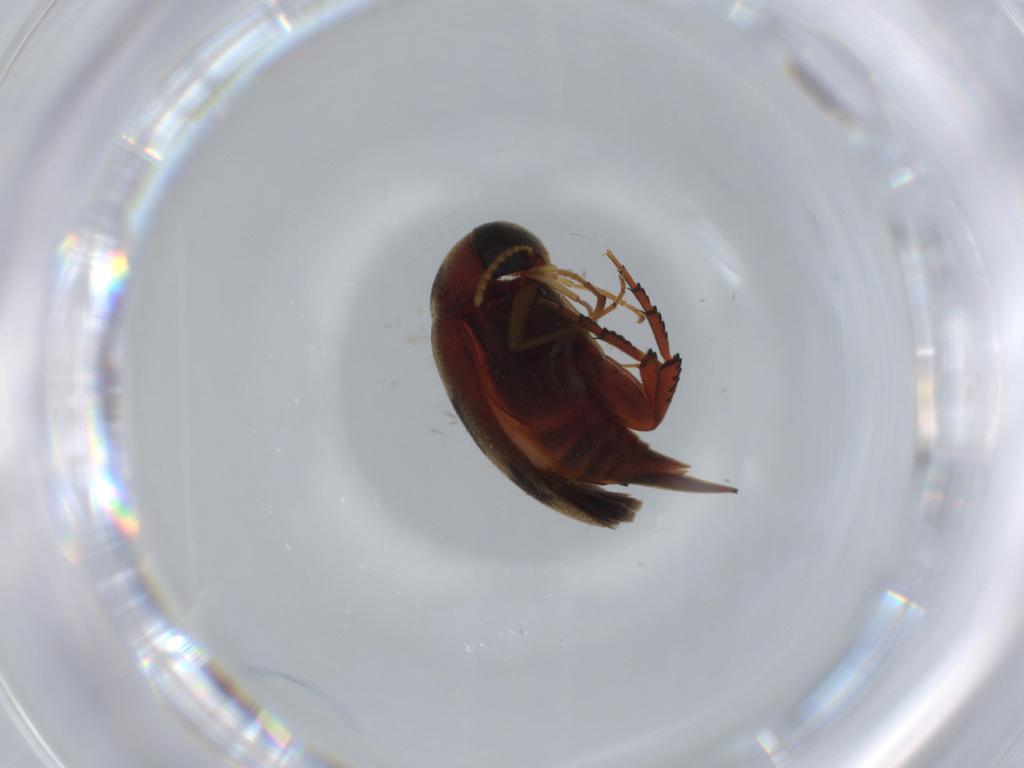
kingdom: Animalia
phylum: Arthropoda
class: Insecta
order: Coleoptera
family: Mordellidae
